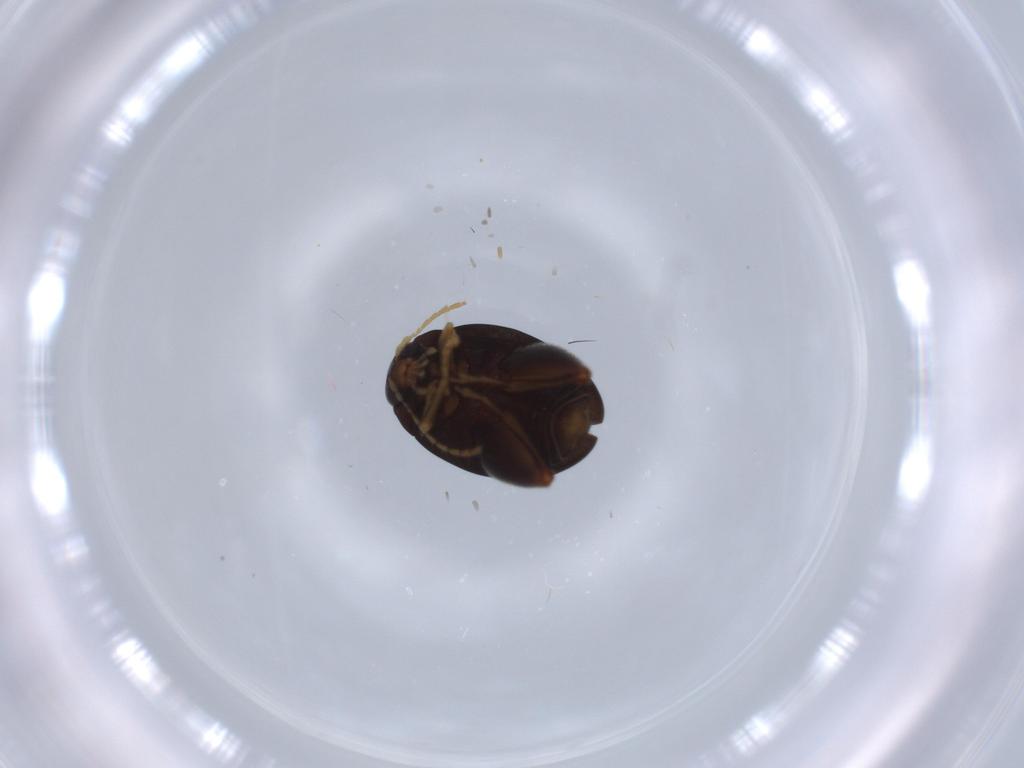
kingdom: Animalia
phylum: Arthropoda
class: Insecta
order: Coleoptera
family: Chrysomelidae
